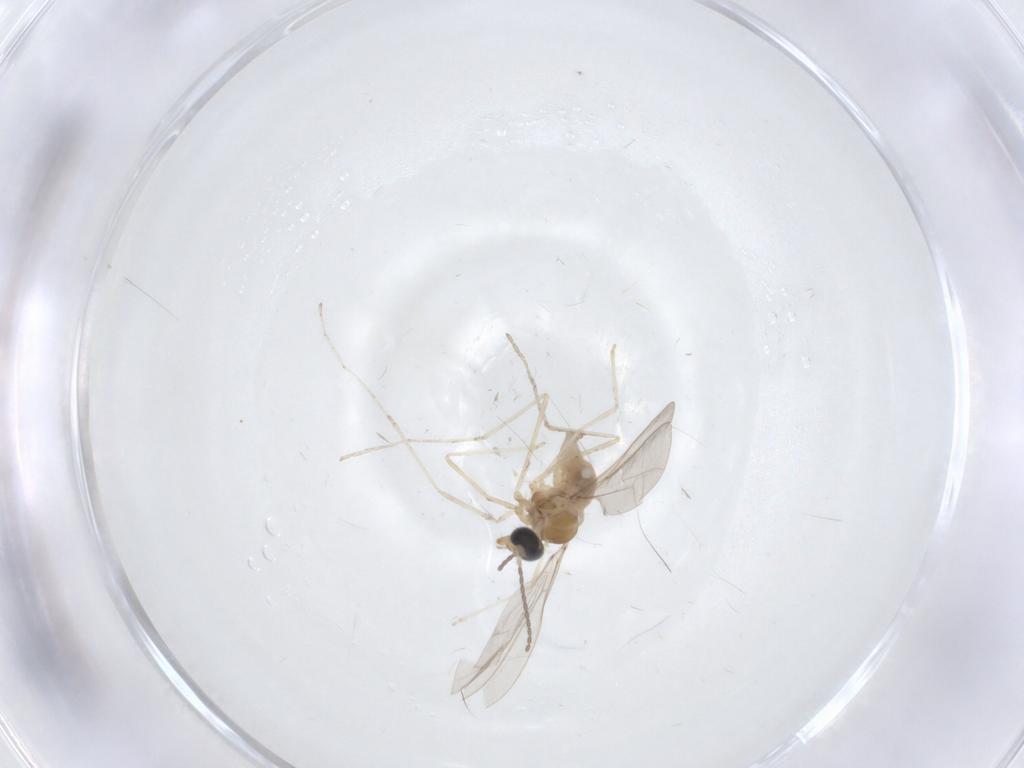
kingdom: Animalia
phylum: Arthropoda
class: Insecta
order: Diptera
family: Cecidomyiidae
